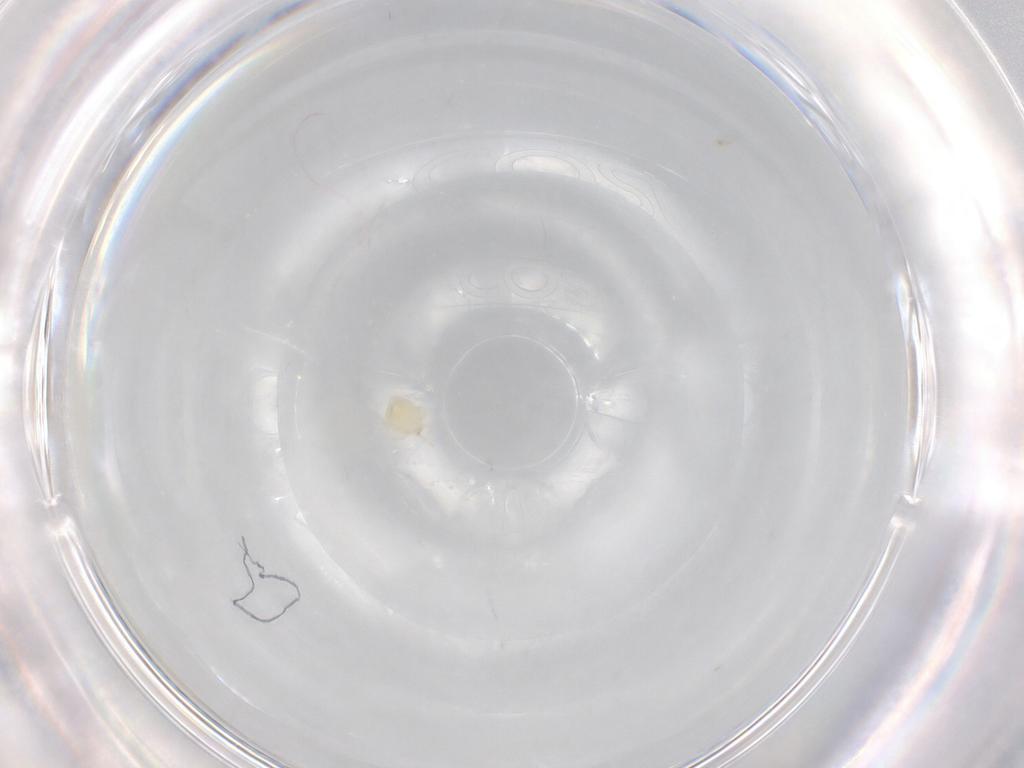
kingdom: Animalia
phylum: Arthropoda
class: Arachnida
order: Trombidiformes
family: Lebertiidae
